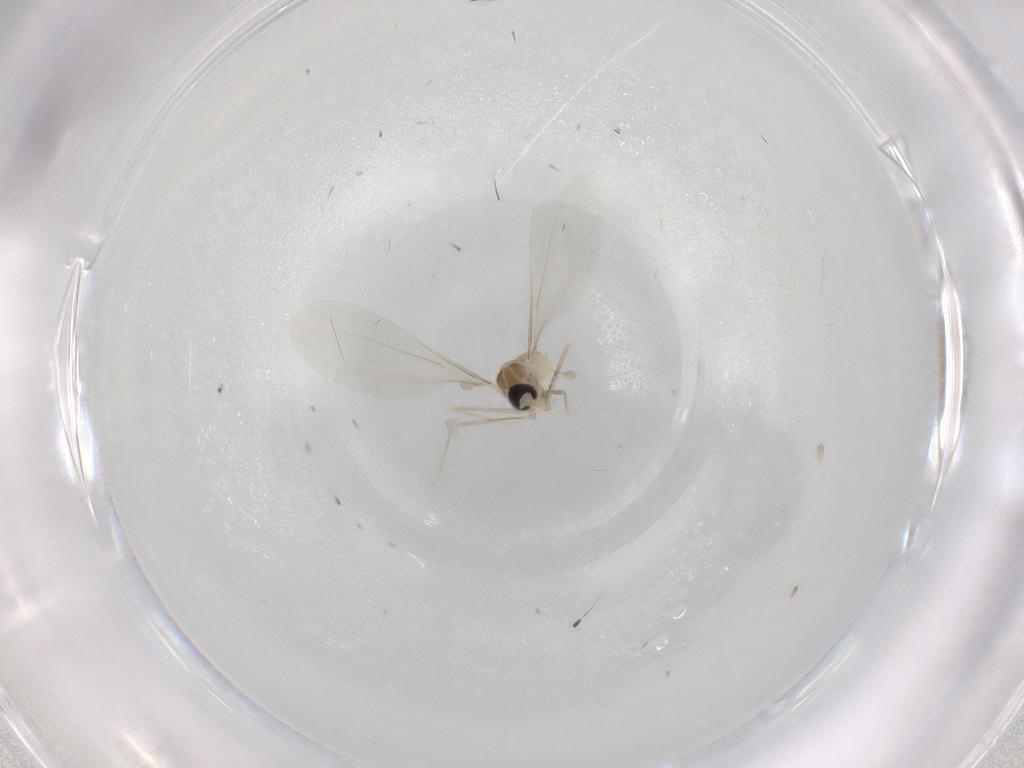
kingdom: Animalia
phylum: Arthropoda
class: Insecta
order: Diptera
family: Cecidomyiidae
